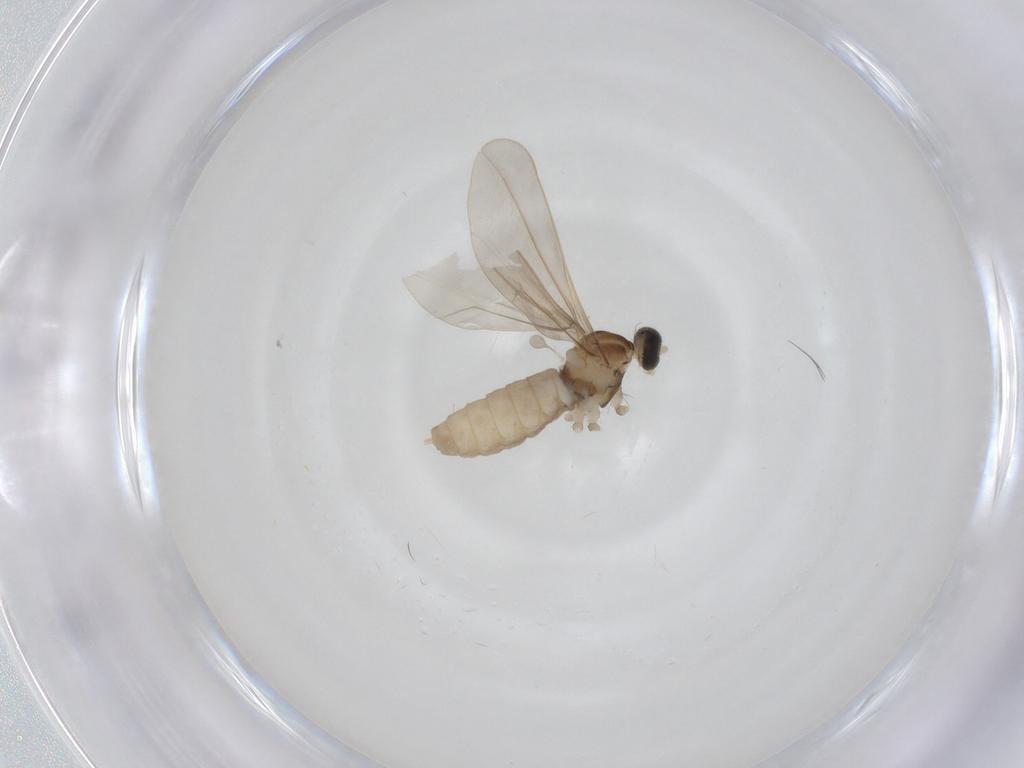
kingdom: Animalia
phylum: Arthropoda
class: Insecta
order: Diptera
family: Cecidomyiidae
